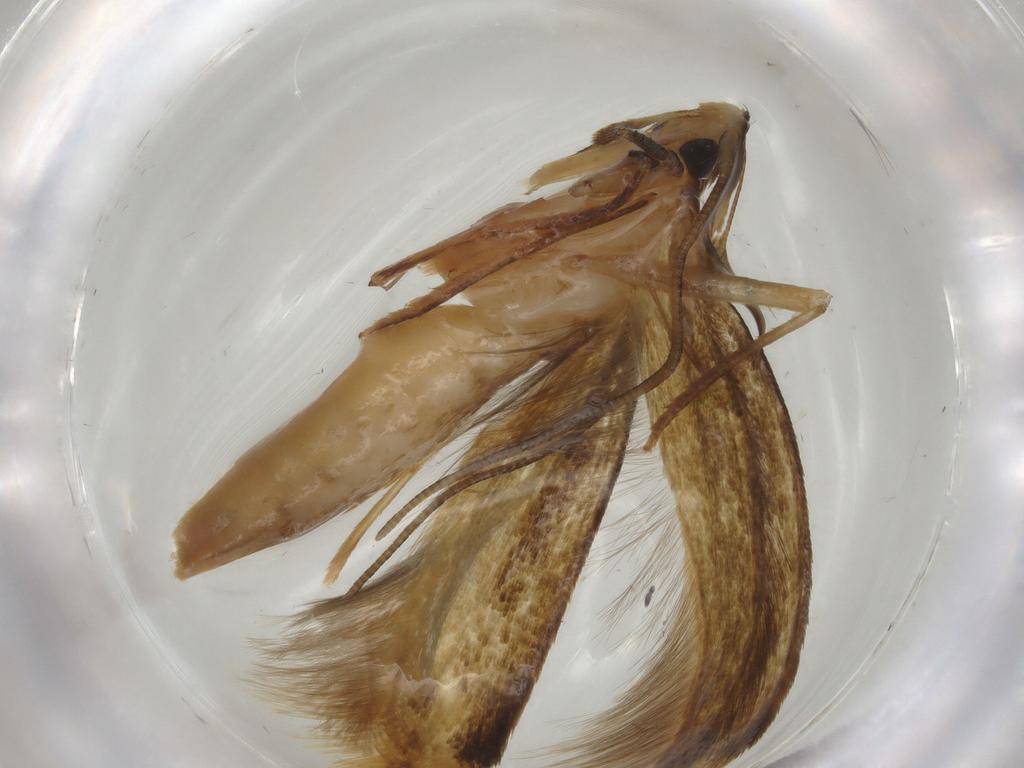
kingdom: Animalia
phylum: Arthropoda
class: Insecta
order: Lepidoptera
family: Tineidae
